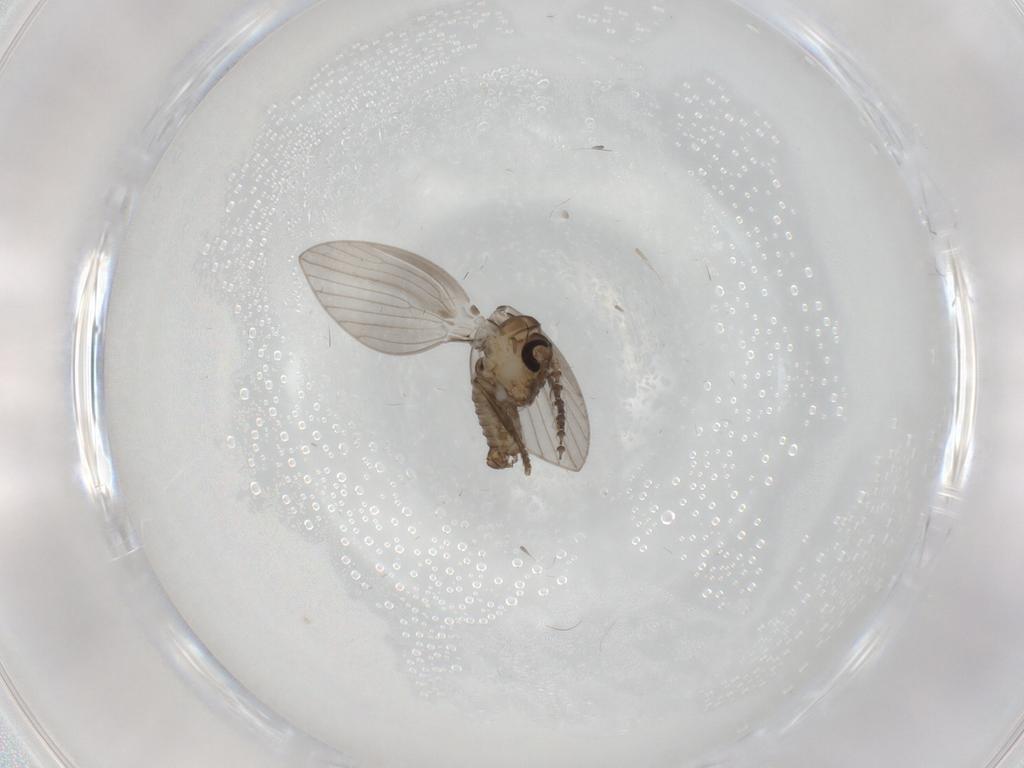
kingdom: Animalia
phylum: Arthropoda
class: Insecta
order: Diptera
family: Psychodidae
